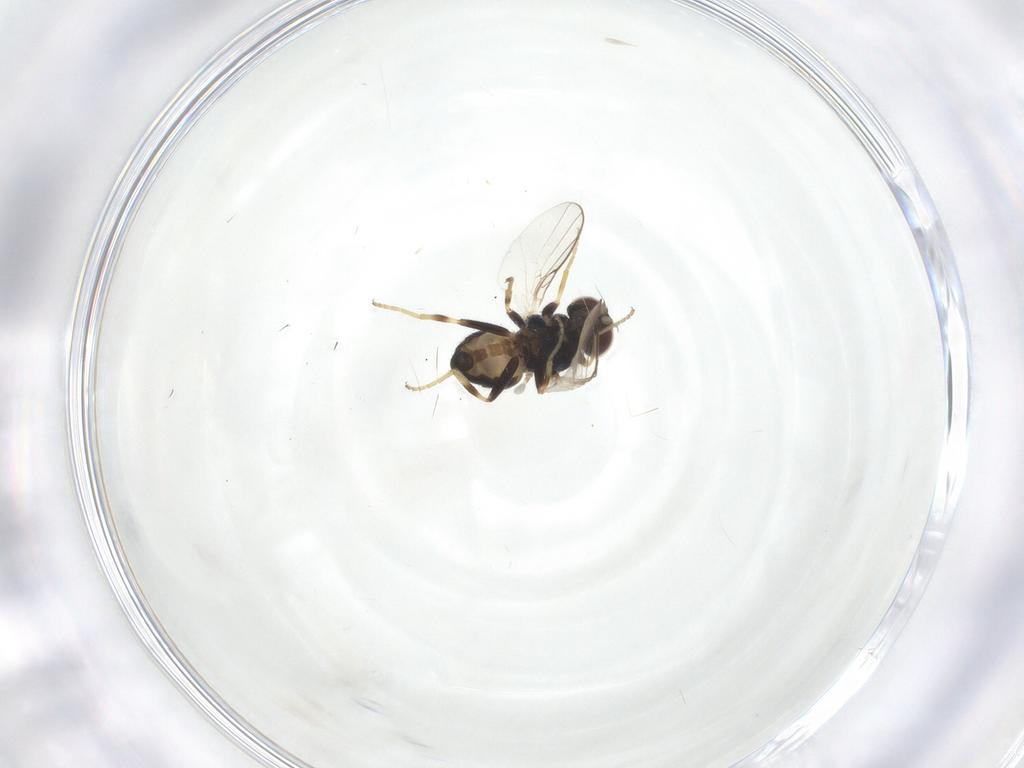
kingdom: Animalia
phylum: Arthropoda
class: Insecta
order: Diptera
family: Chloropidae
